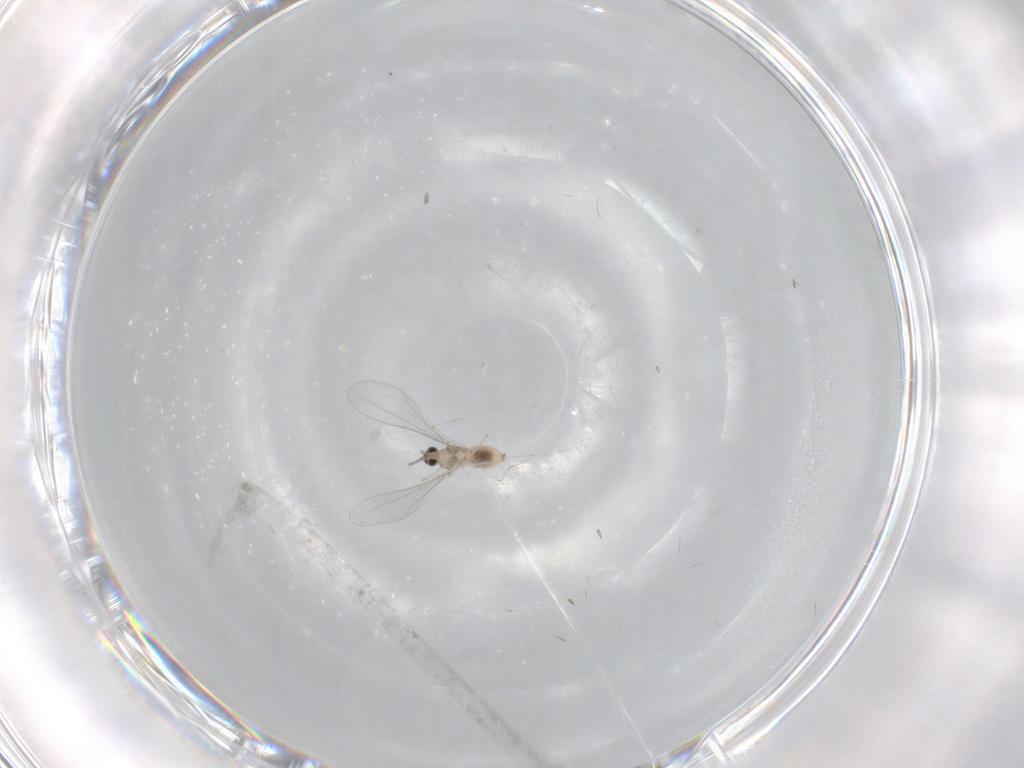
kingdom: Animalia
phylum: Arthropoda
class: Insecta
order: Diptera
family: Cecidomyiidae
